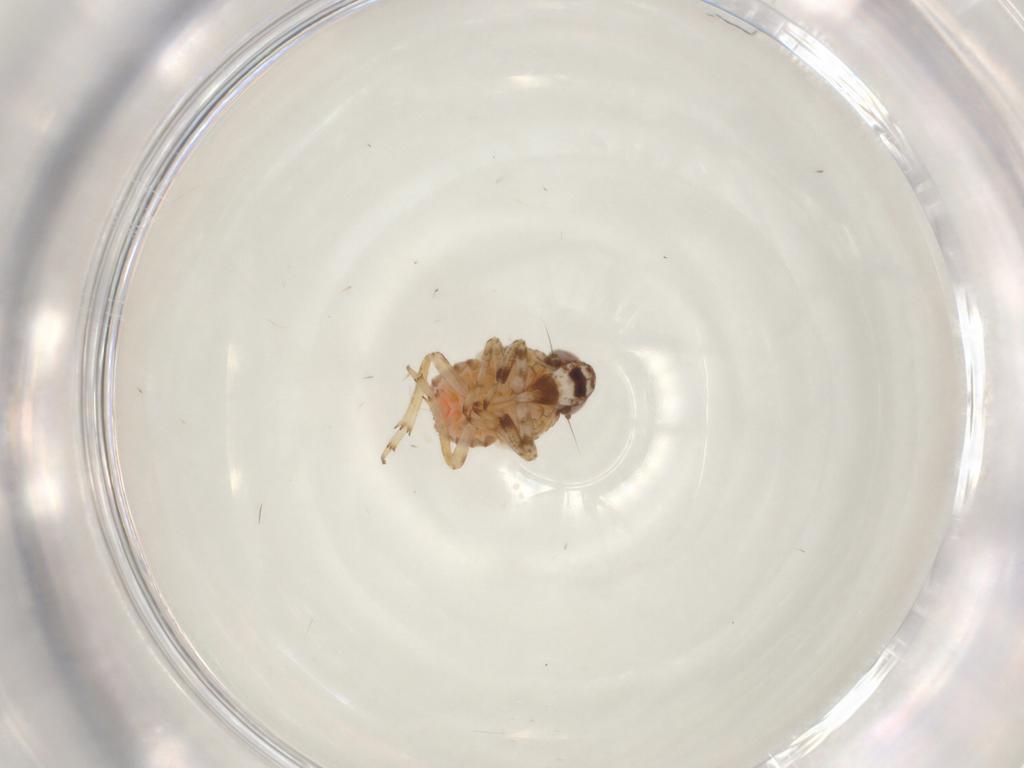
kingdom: Animalia
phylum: Arthropoda
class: Insecta
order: Hemiptera
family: Issidae
